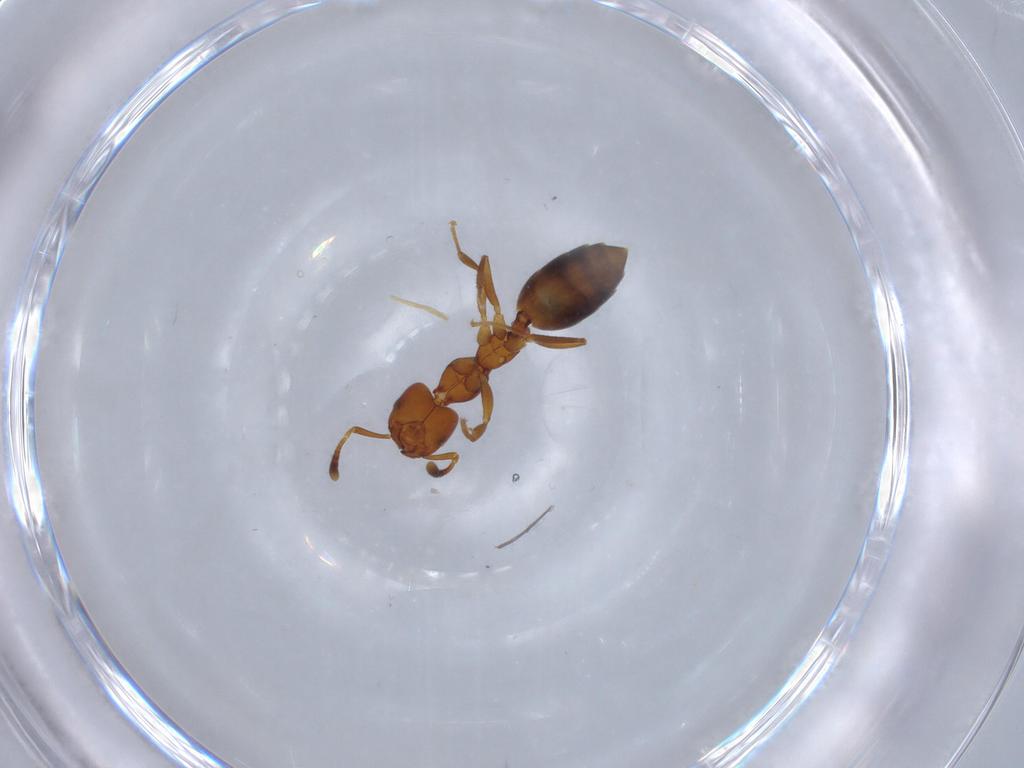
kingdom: Animalia
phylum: Arthropoda
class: Insecta
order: Hymenoptera
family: Formicidae
